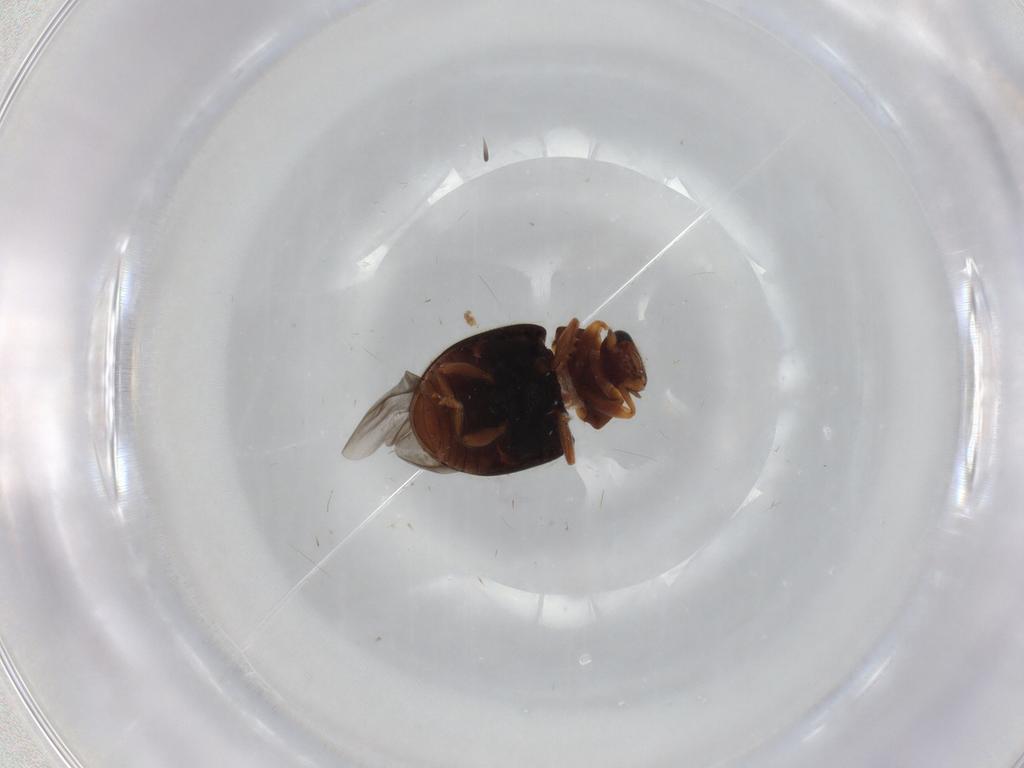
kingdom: Animalia
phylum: Arthropoda
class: Insecta
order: Coleoptera
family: Coccinellidae
